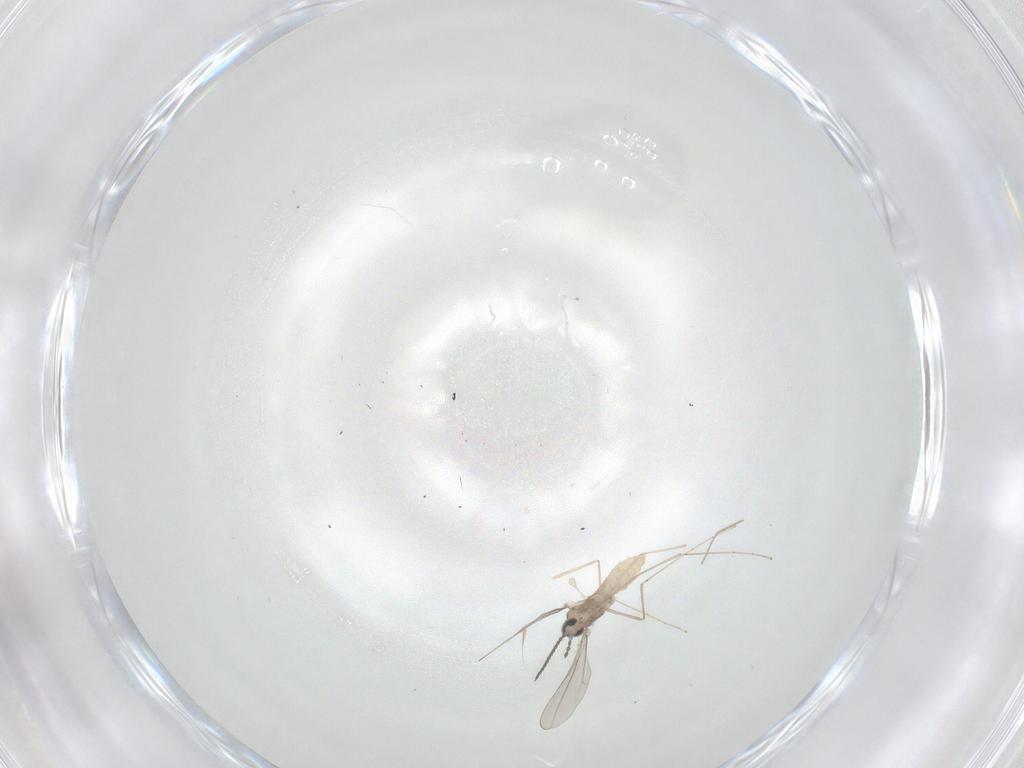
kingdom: Animalia
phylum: Arthropoda
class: Insecta
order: Diptera
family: Cecidomyiidae
